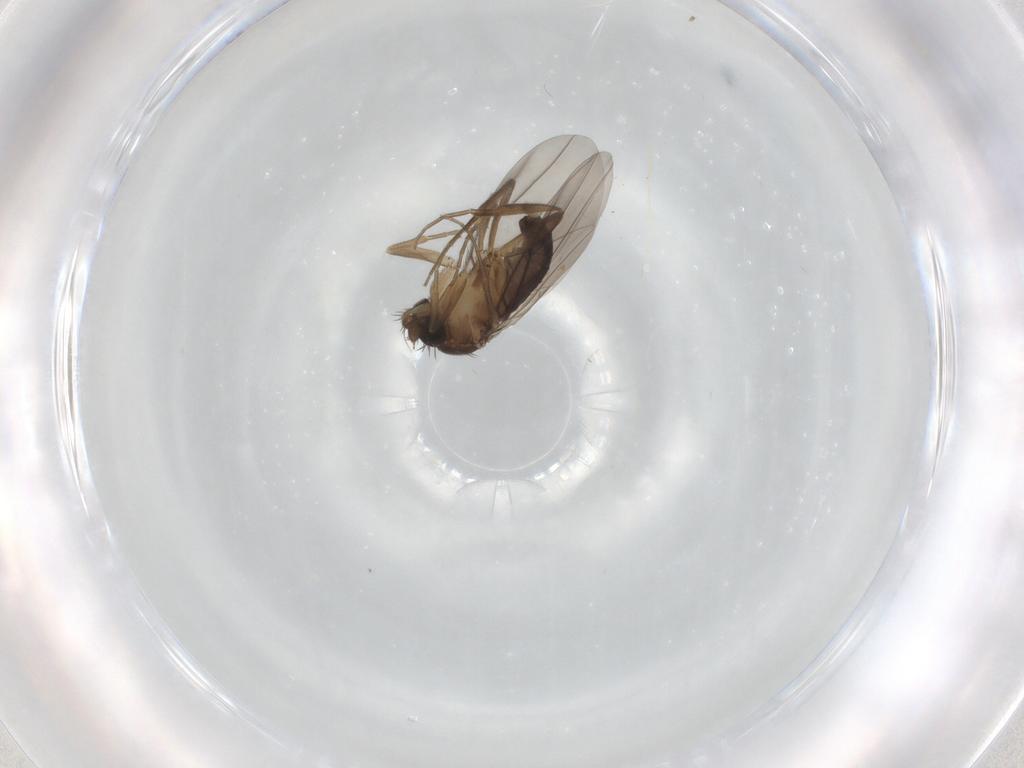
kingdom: Animalia
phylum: Arthropoda
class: Insecta
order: Diptera
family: Phoridae
